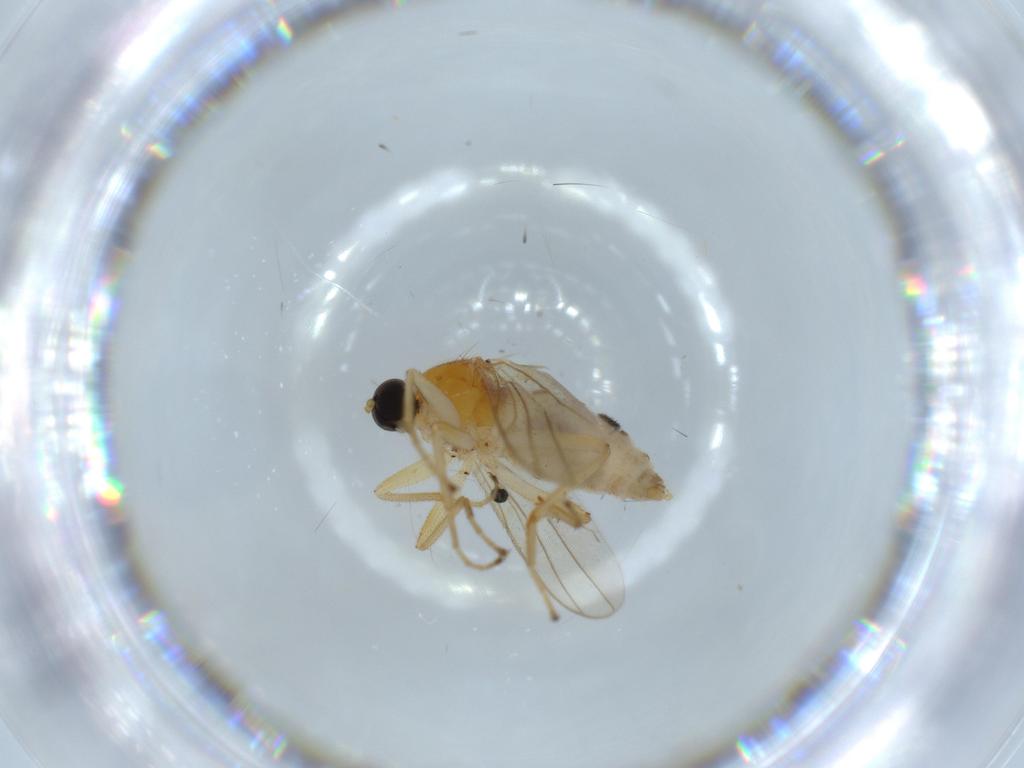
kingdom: Animalia
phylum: Arthropoda
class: Insecta
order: Diptera
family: Hybotidae
